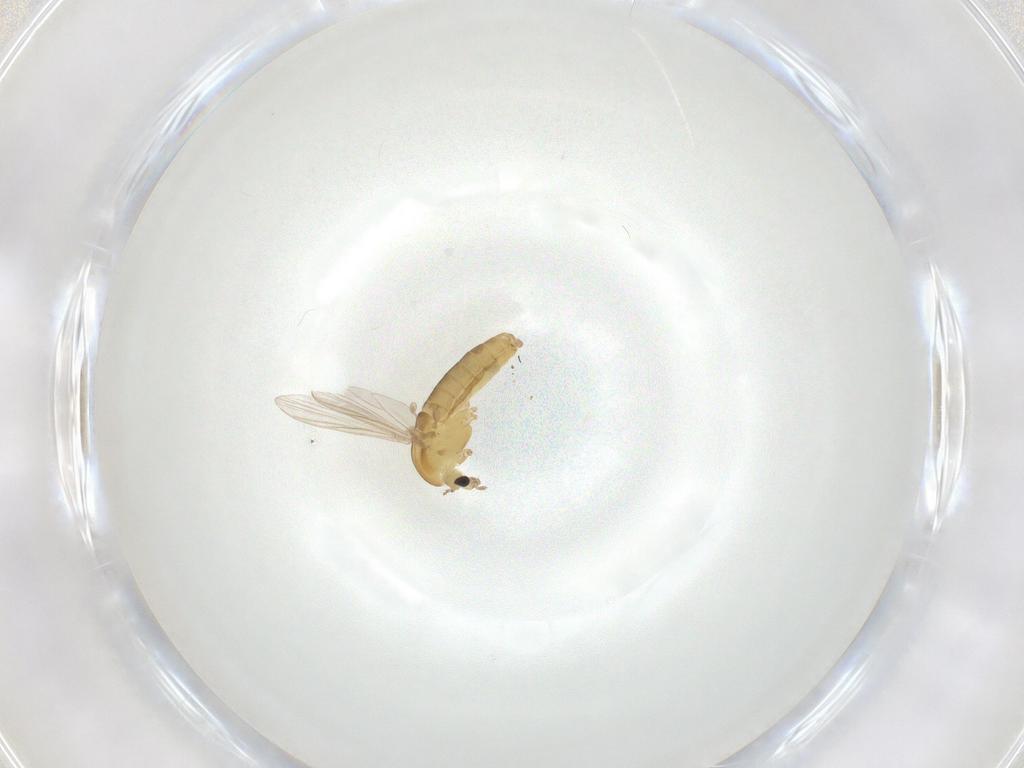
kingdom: Animalia
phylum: Arthropoda
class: Insecta
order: Diptera
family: Chironomidae
